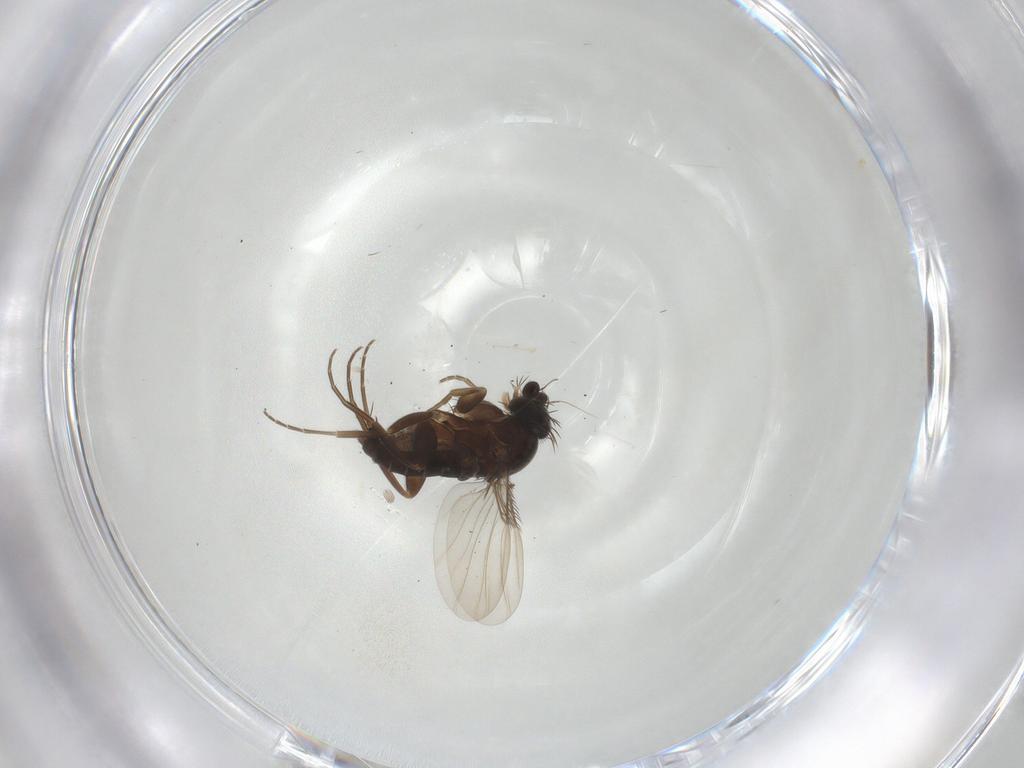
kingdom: Animalia
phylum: Arthropoda
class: Insecta
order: Diptera
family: Phoridae
